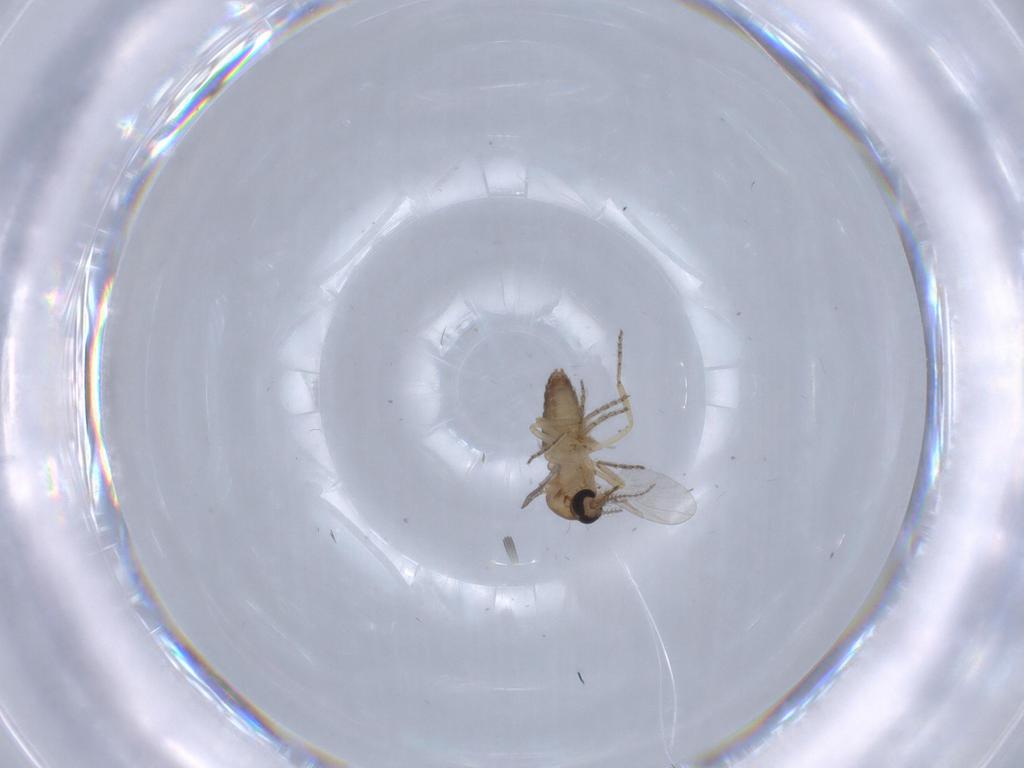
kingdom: Animalia
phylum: Arthropoda
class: Insecta
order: Diptera
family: Ceratopogonidae
